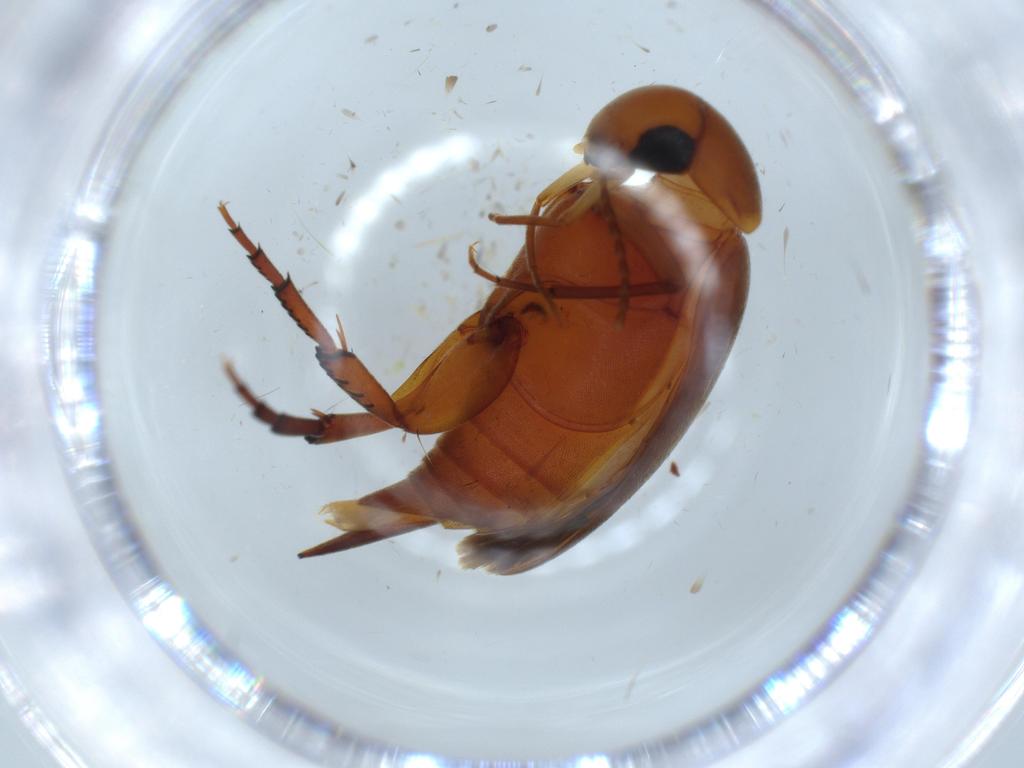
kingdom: Animalia
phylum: Arthropoda
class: Insecta
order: Coleoptera
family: Mordellidae
